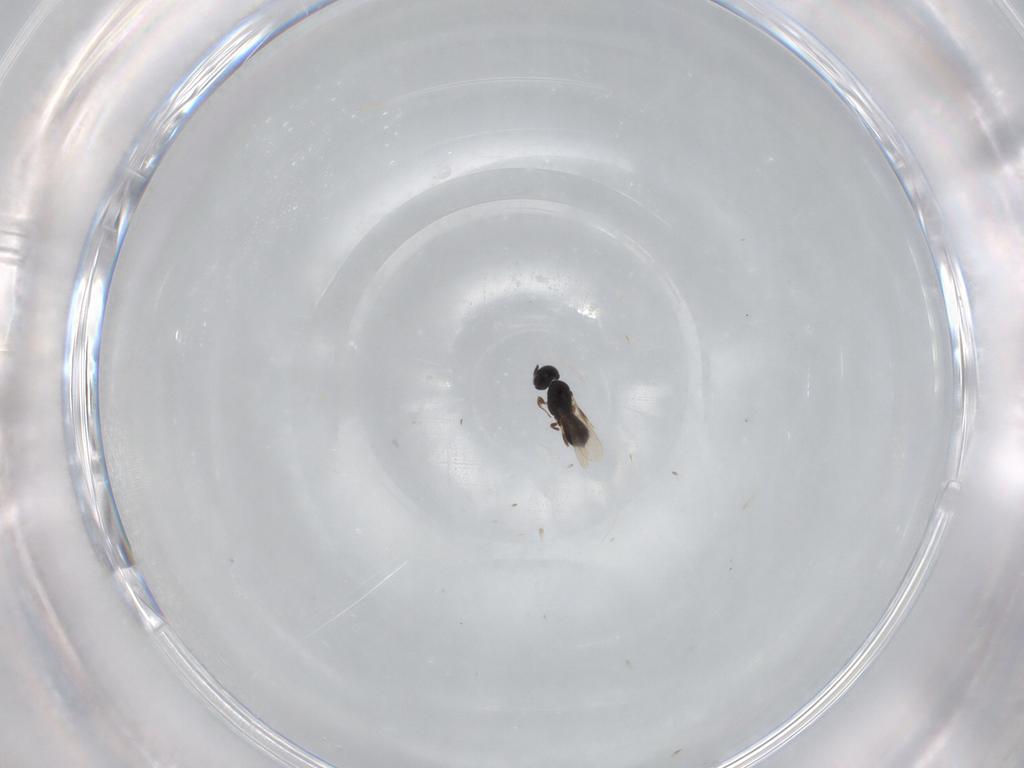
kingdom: Animalia
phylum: Arthropoda
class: Insecta
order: Hymenoptera
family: Scelionidae
